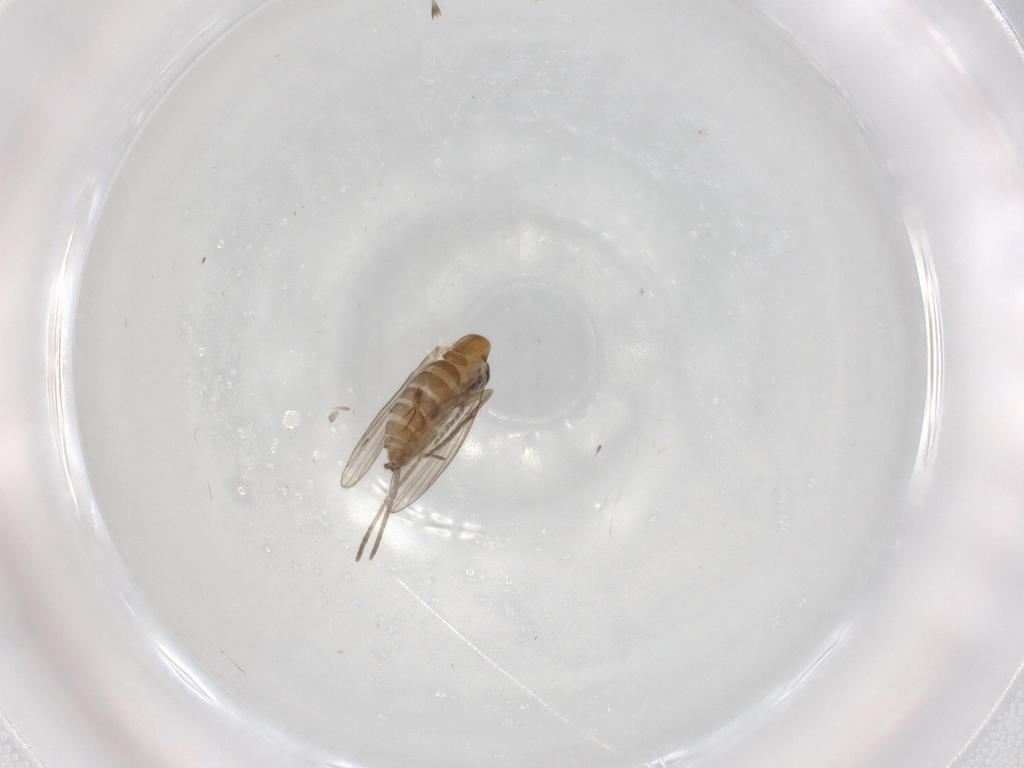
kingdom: Animalia
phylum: Arthropoda
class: Insecta
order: Diptera
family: Psychodidae
